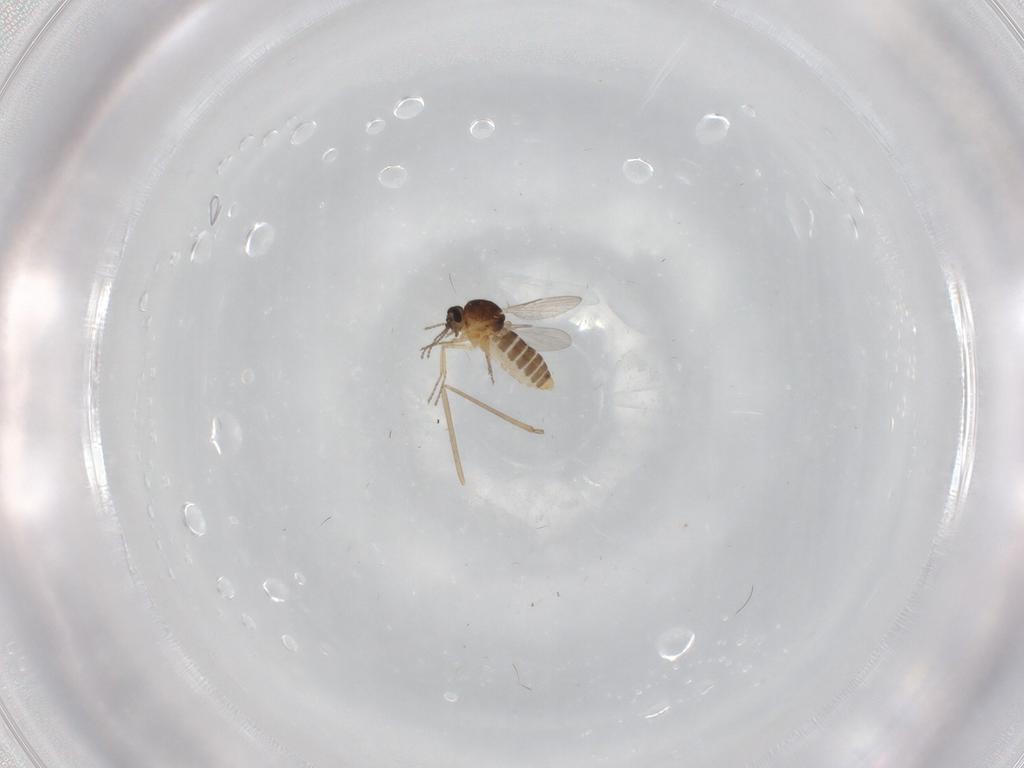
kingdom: Animalia
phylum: Arthropoda
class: Insecta
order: Diptera
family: Ceratopogonidae
